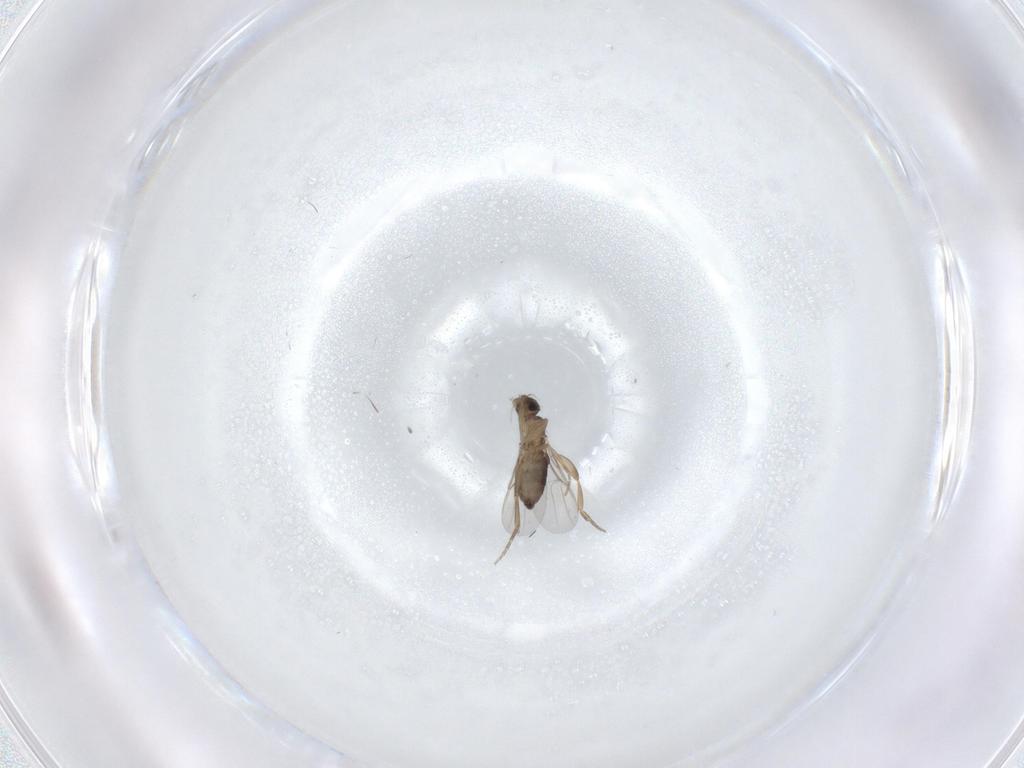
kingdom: Animalia
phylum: Arthropoda
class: Insecta
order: Diptera
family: Phoridae
